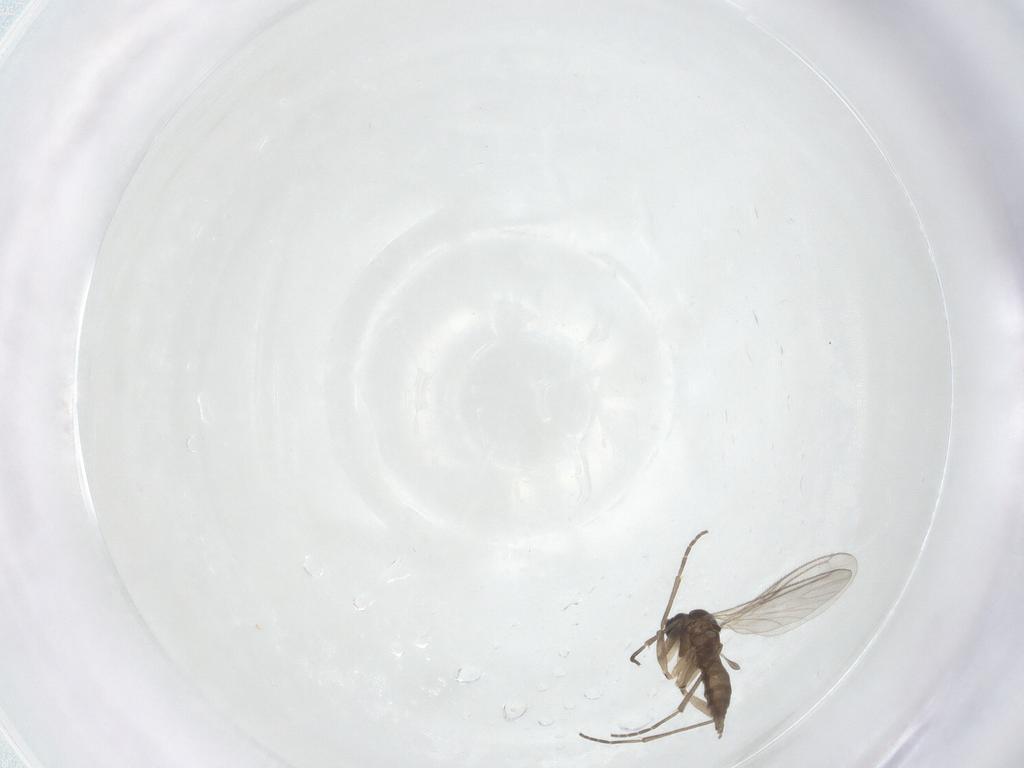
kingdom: Animalia
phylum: Arthropoda
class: Insecta
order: Diptera
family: Sciaridae
